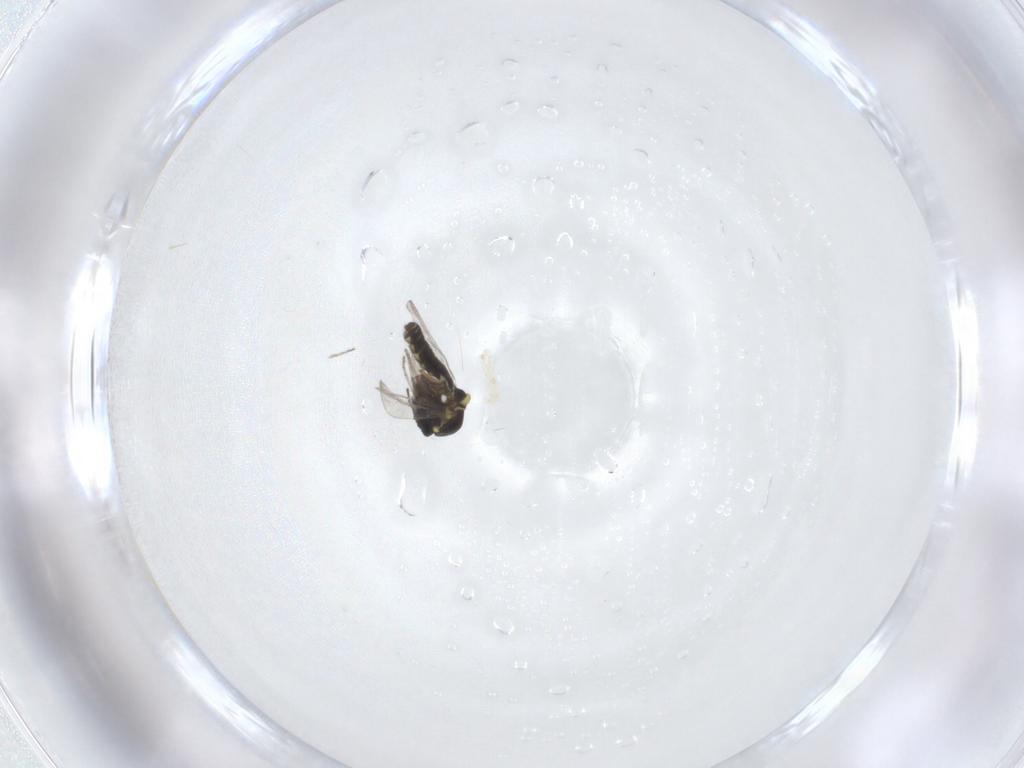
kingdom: Animalia
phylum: Arthropoda
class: Insecta
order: Diptera
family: Ceratopogonidae
